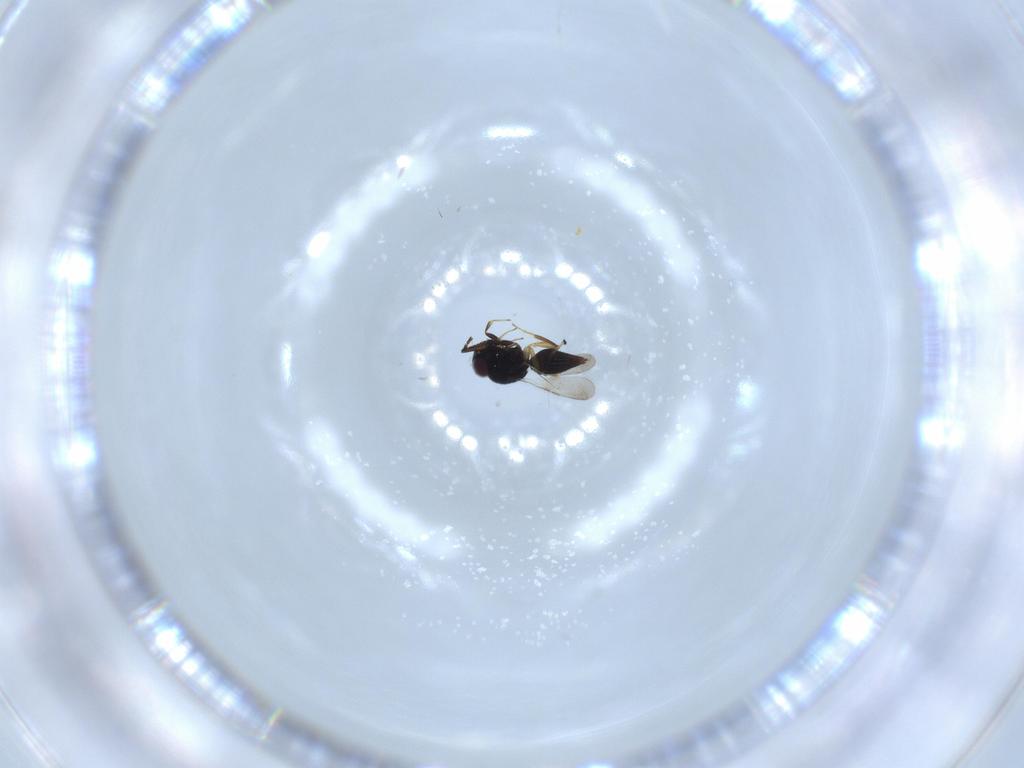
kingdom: Animalia
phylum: Arthropoda
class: Insecta
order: Hymenoptera
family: Ceraphronidae
